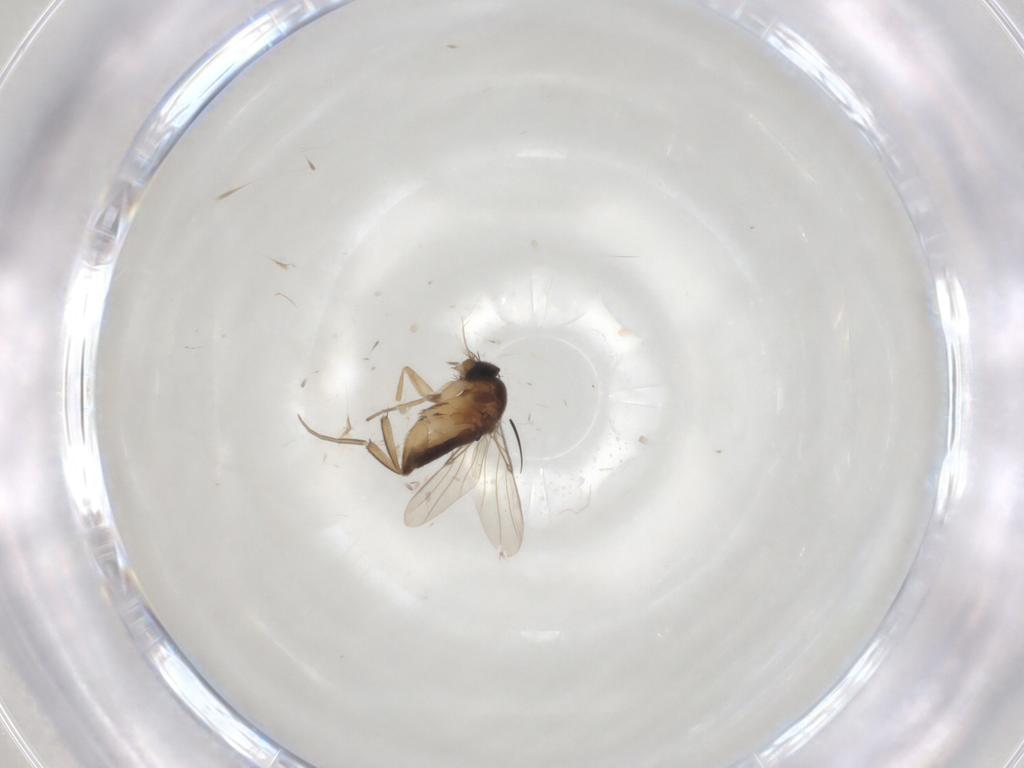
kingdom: Animalia
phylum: Arthropoda
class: Insecta
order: Diptera
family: Phoridae
